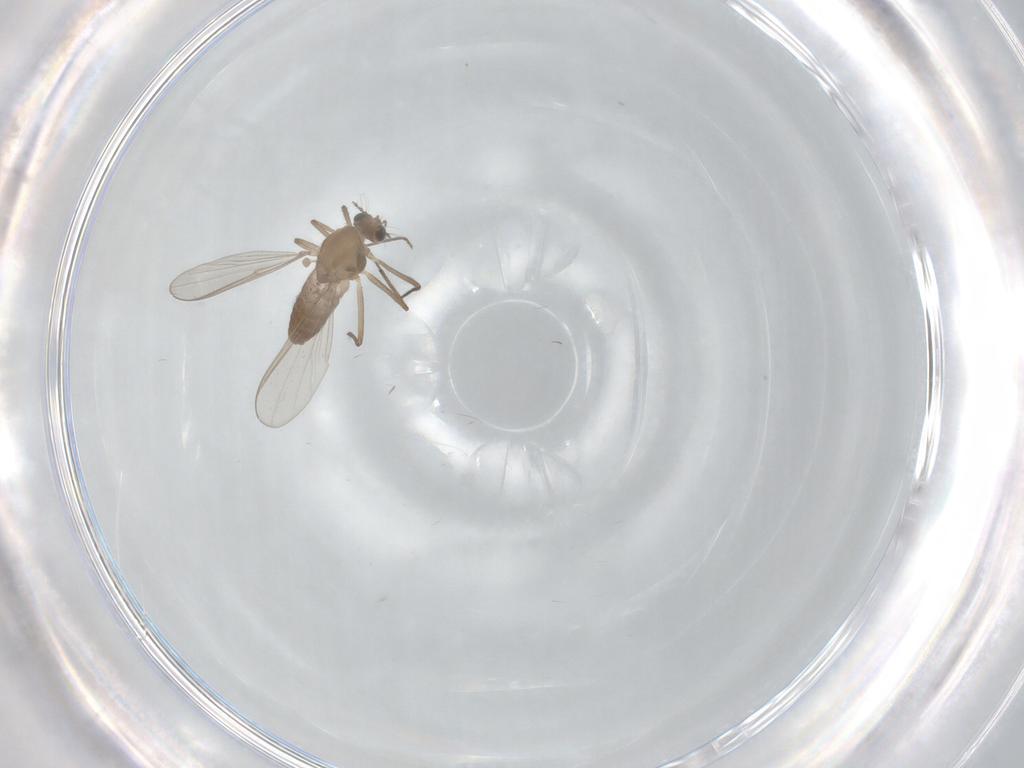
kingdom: Animalia
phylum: Arthropoda
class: Insecta
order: Diptera
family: Chironomidae
